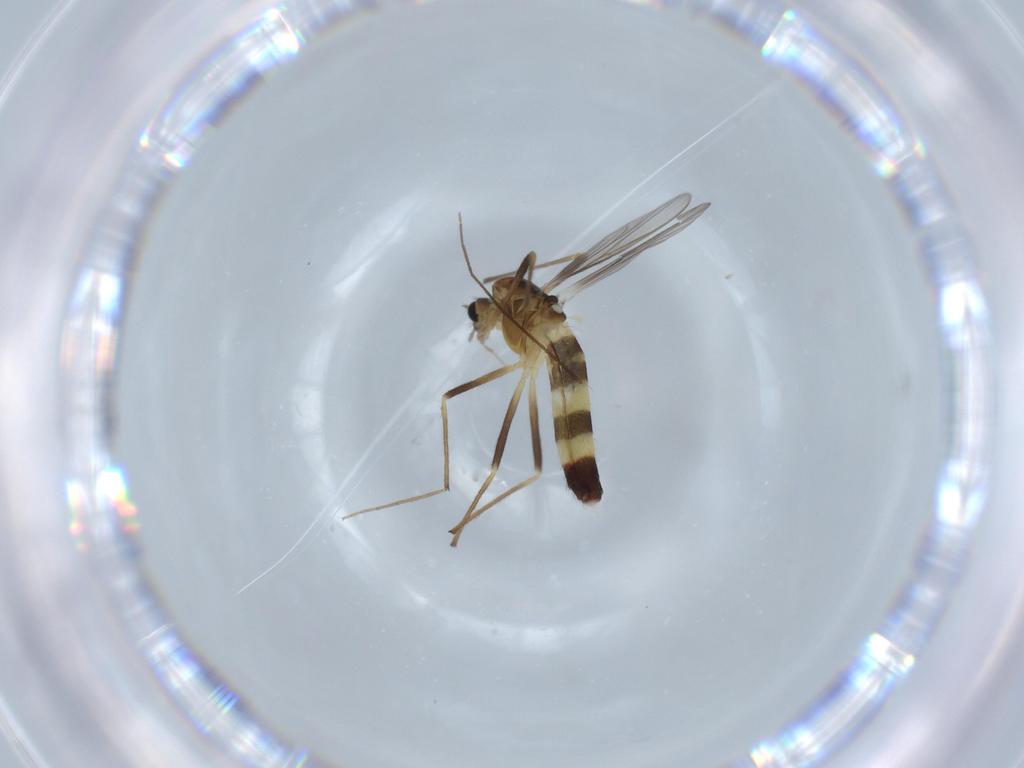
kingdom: Animalia
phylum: Arthropoda
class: Insecta
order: Diptera
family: Chironomidae
